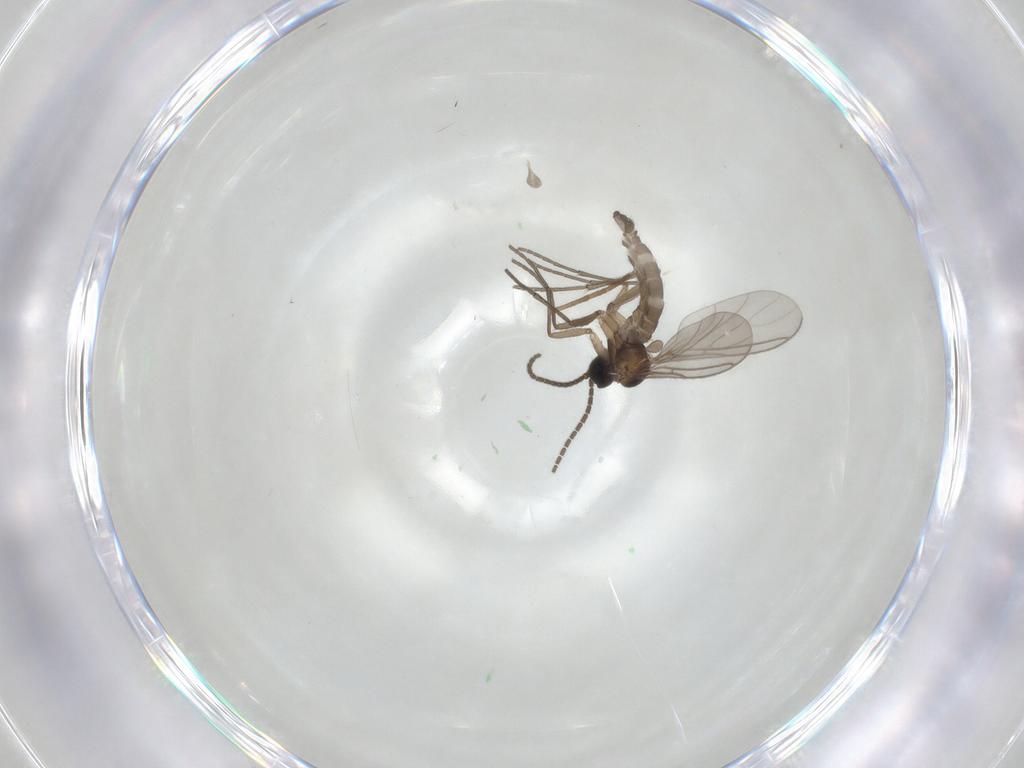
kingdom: Animalia
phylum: Arthropoda
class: Insecta
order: Diptera
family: Sciaridae
